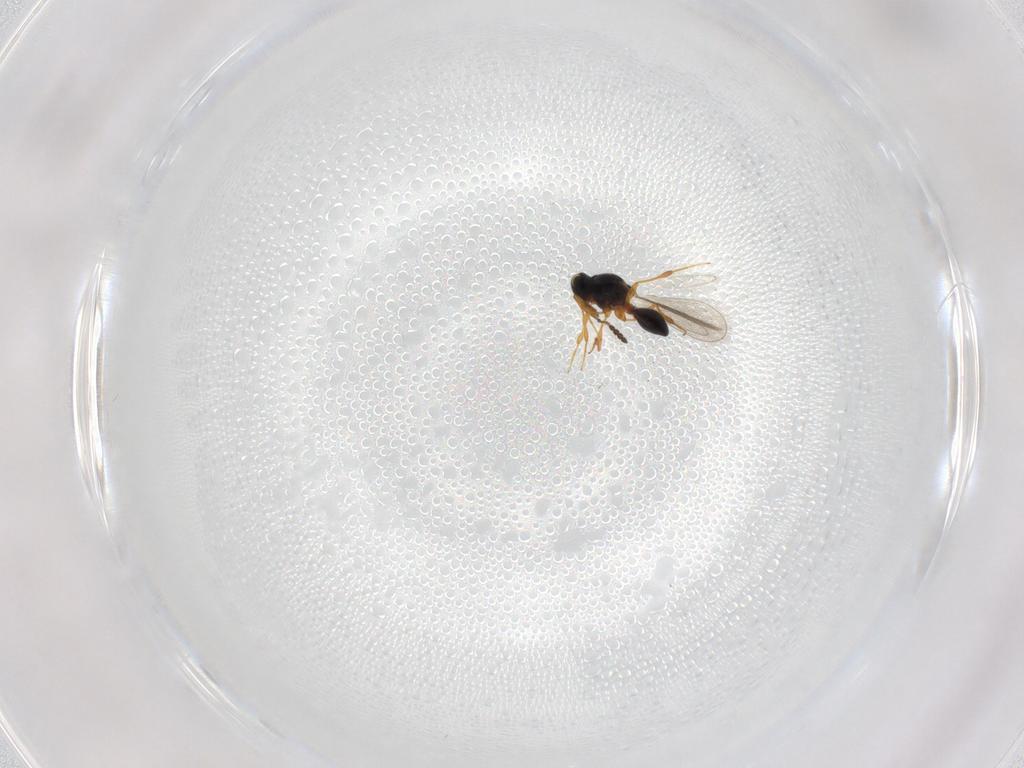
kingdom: Animalia
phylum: Arthropoda
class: Insecta
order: Hymenoptera
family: Platygastridae
